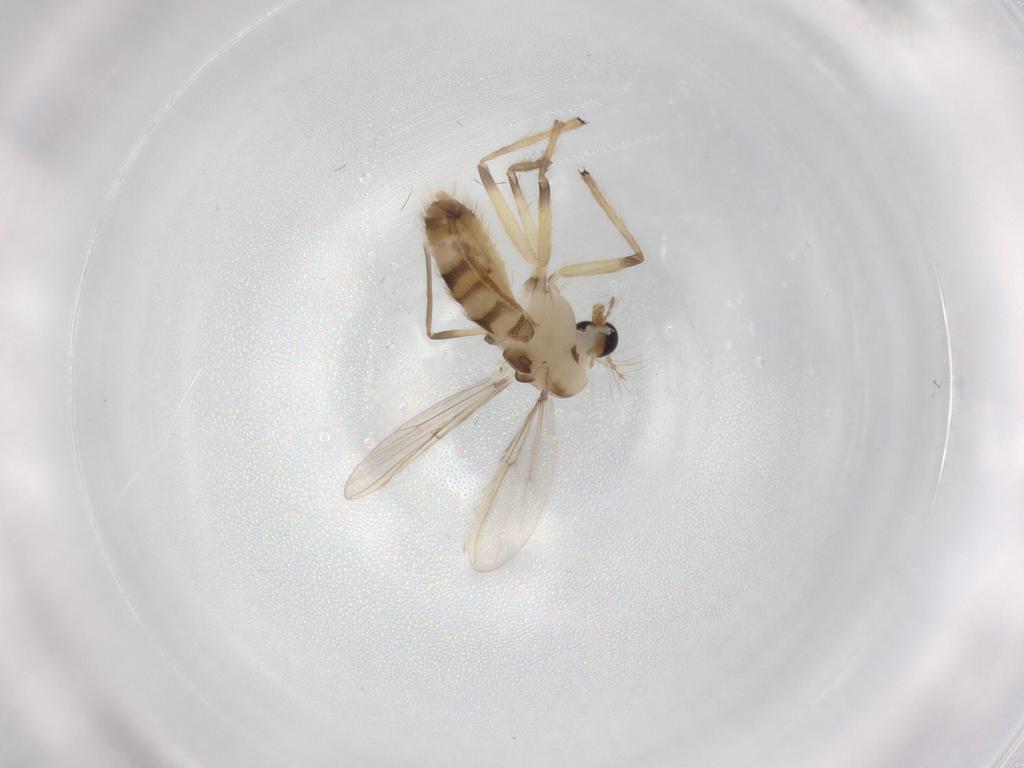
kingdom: Animalia
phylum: Arthropoda
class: Insecta
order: Diptera
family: Chironomidae
